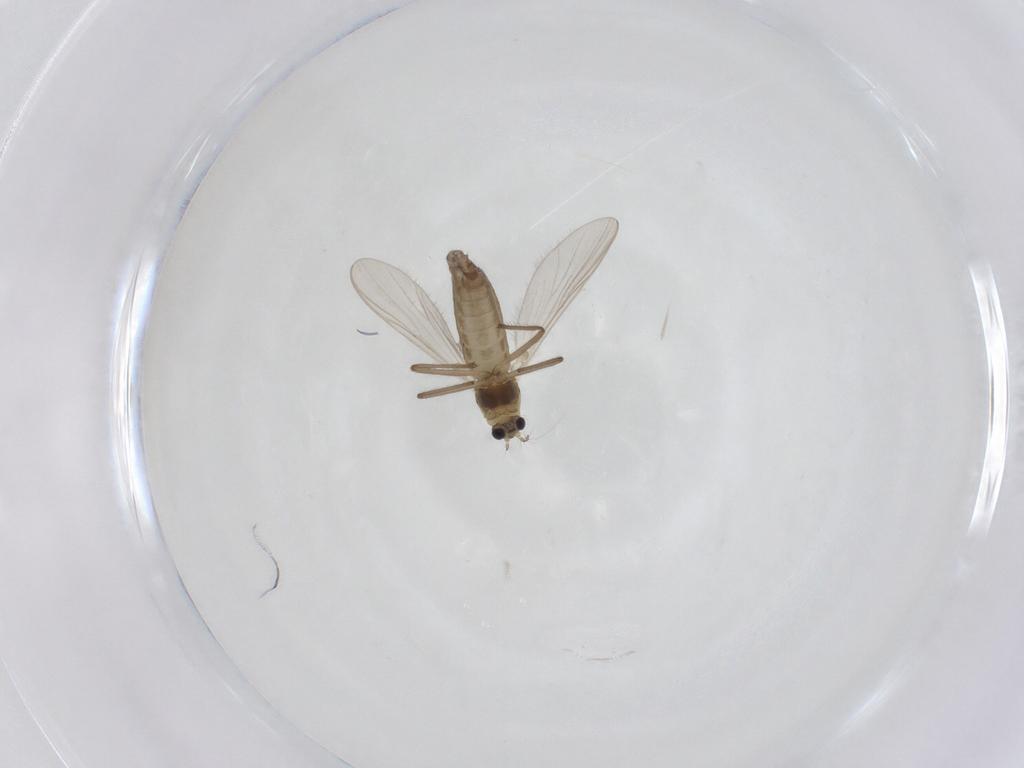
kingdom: Animalia
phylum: Arthropoda
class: Insecta
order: Diptera
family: Chironomidae
